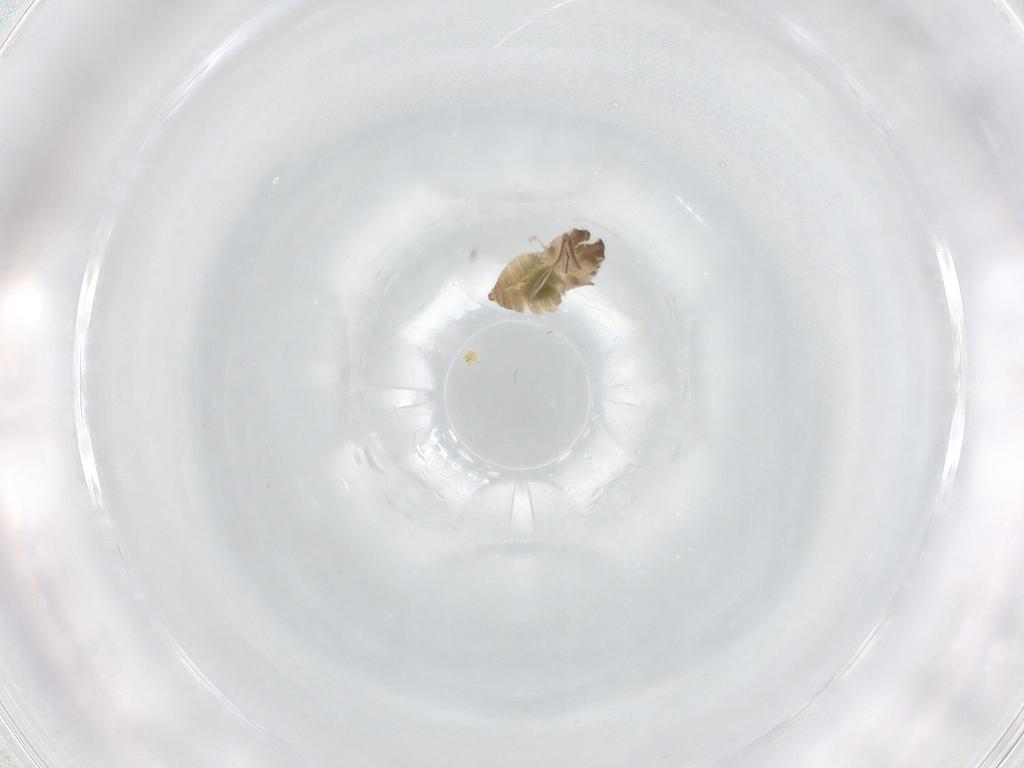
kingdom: Animalia
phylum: Arthropoda
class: Insecta
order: Diptera
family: Cecidomyiidae
